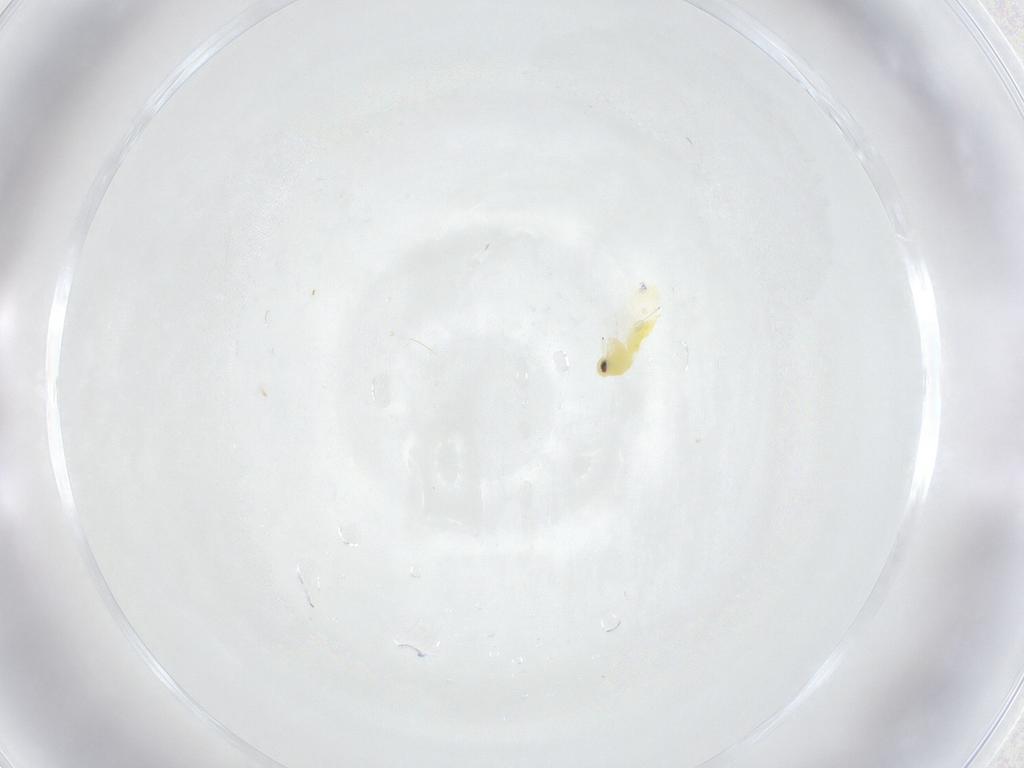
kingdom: Animalia
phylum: Arthropoda
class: Insecta
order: Hemiptera
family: Aleyrodidae
